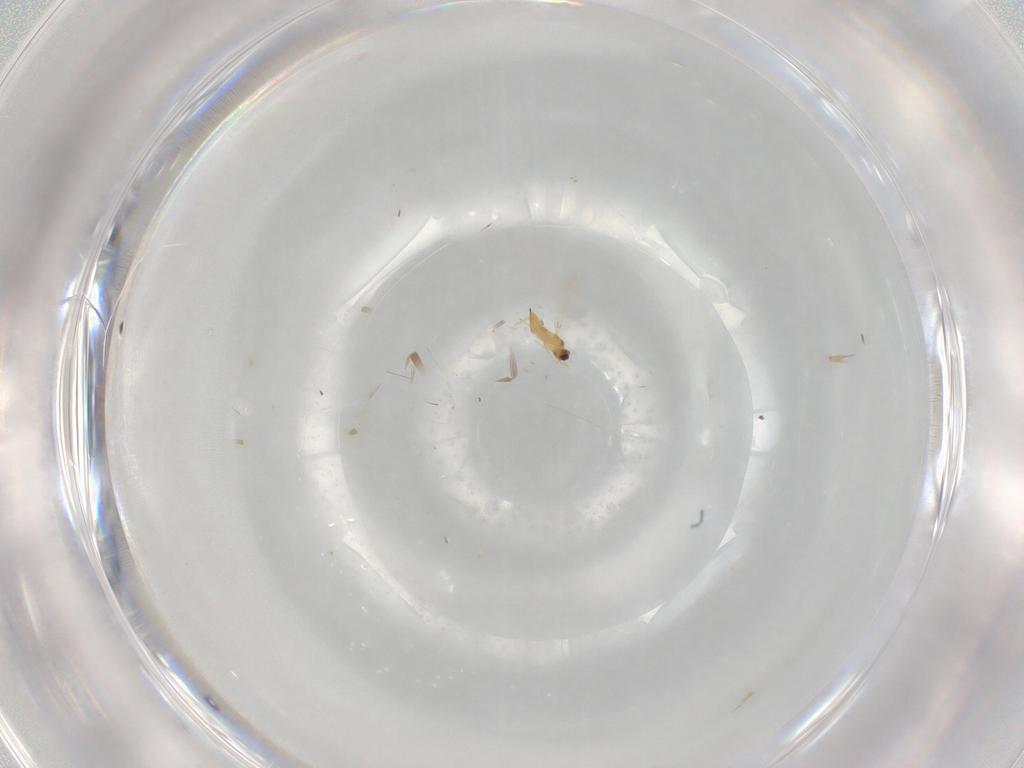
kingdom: Animalia
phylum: Arthropoda
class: Insecta
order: Hymenoptera
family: Mymaridae
